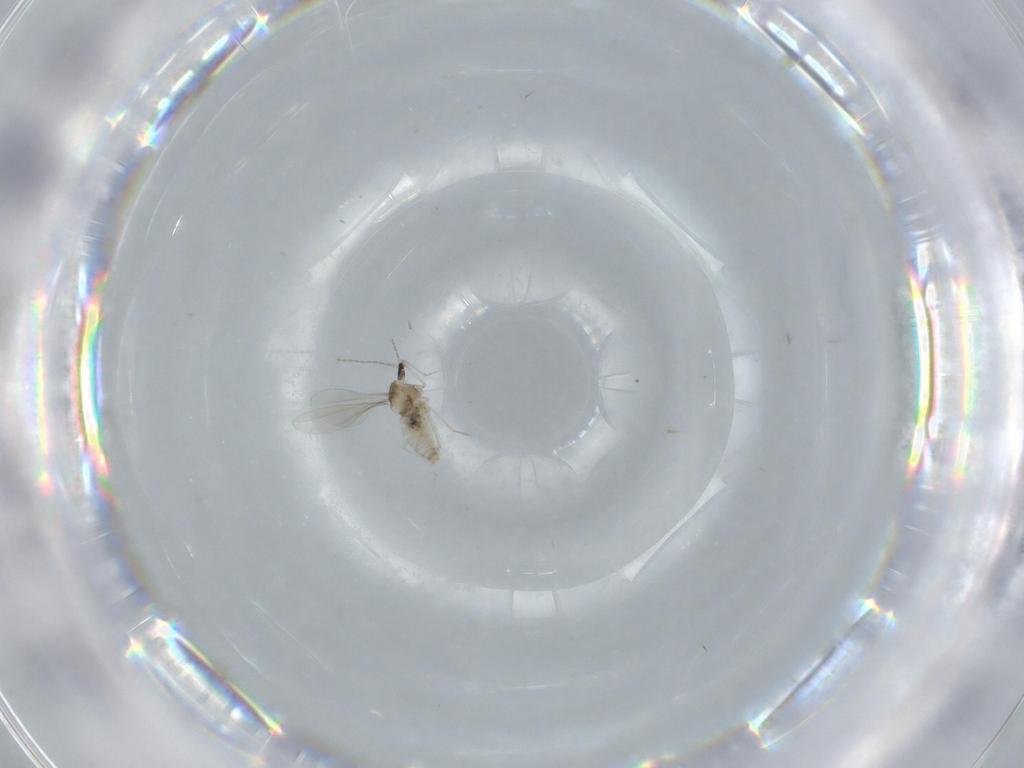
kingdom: Animalia
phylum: Arthropoda
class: Insecta
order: Diptera
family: Cecidomyiidae
